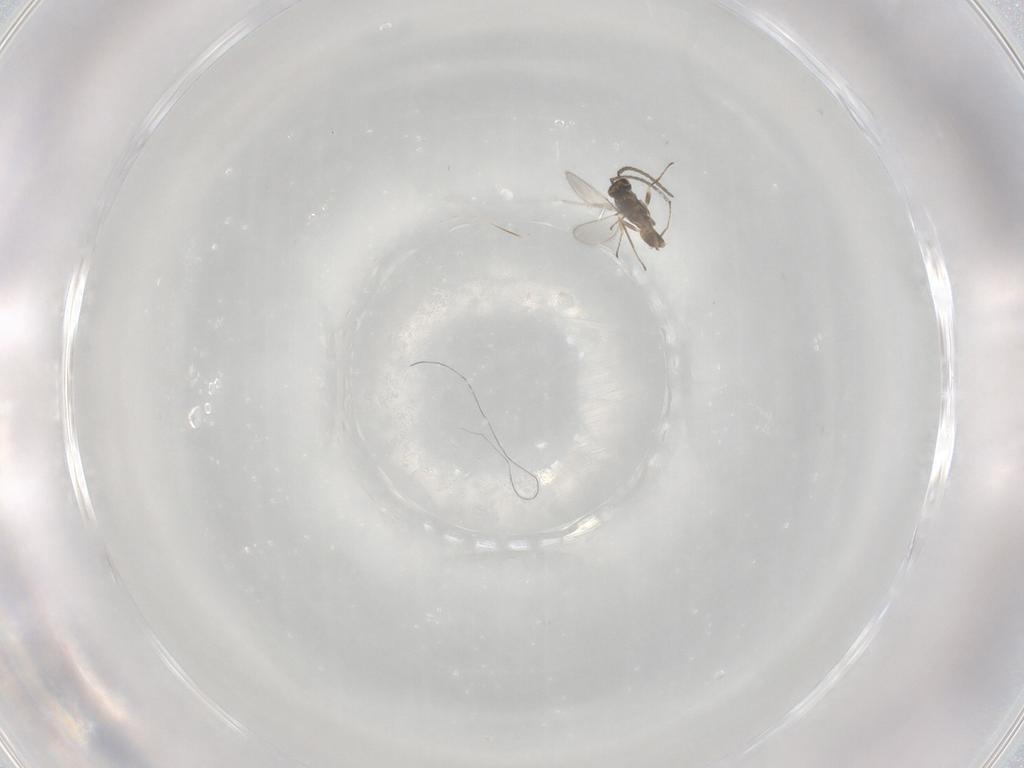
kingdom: Animalia
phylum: Arthropoda
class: Insecta
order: Hymenoptera
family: Mymaridae
